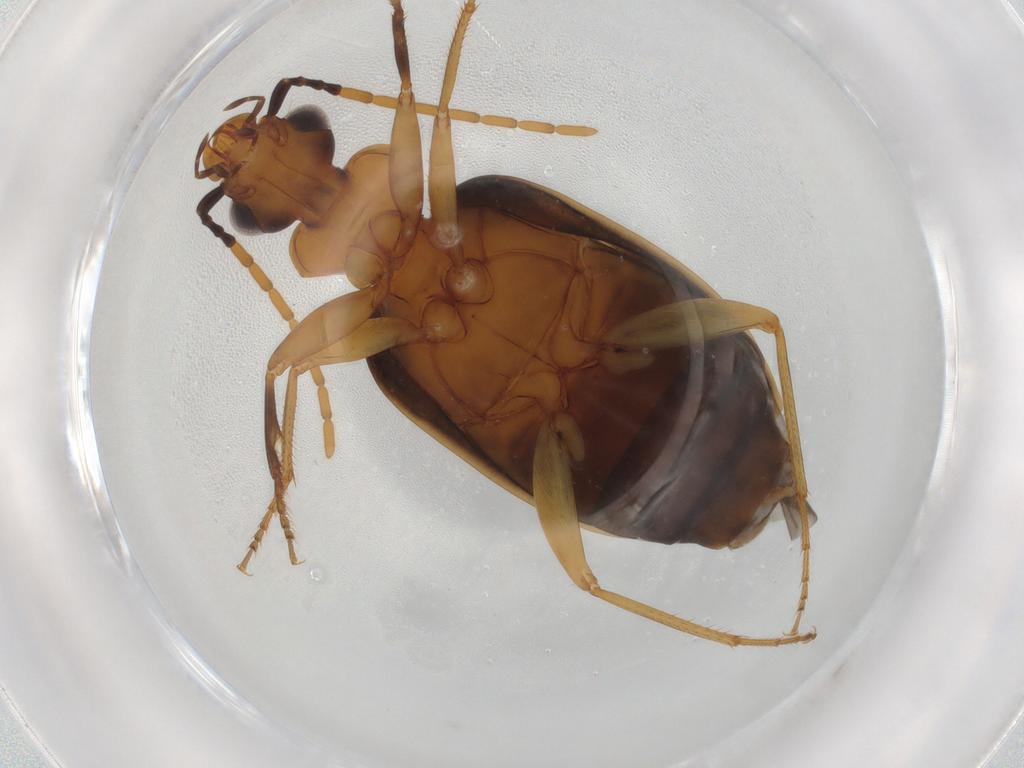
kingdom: Animalia
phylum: Arthropoda
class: Insecta
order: Coleoptera
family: Carabidae
